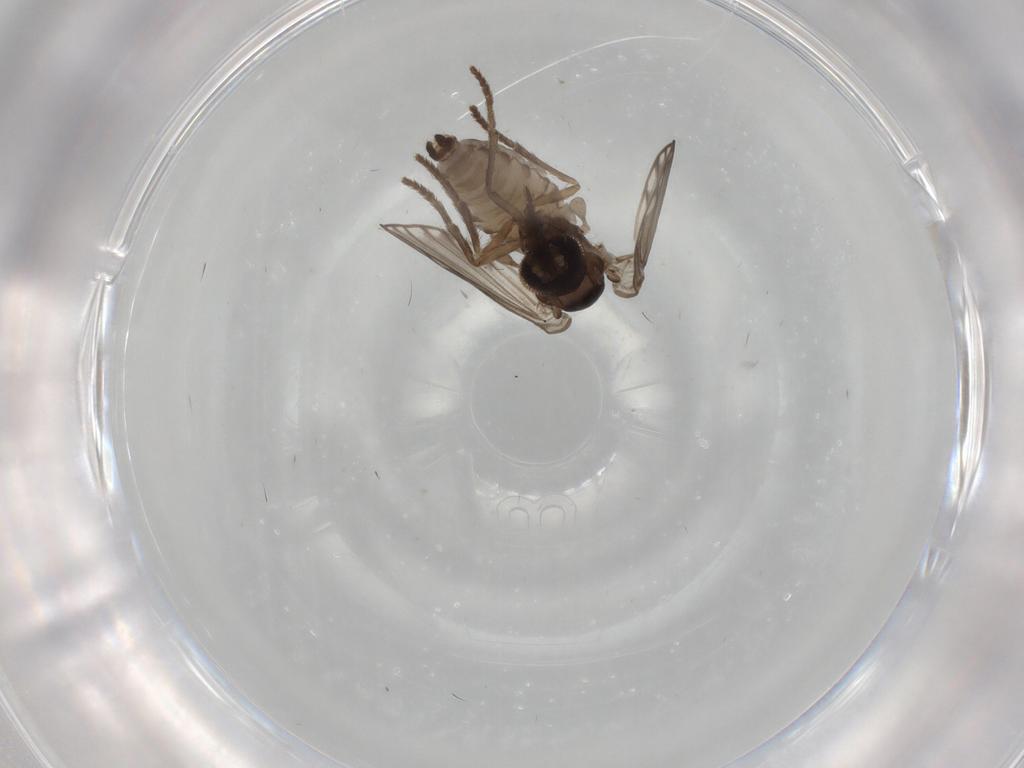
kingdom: Animalia
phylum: Arthropoda
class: Insecta
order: Diptera
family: Psychodidae
